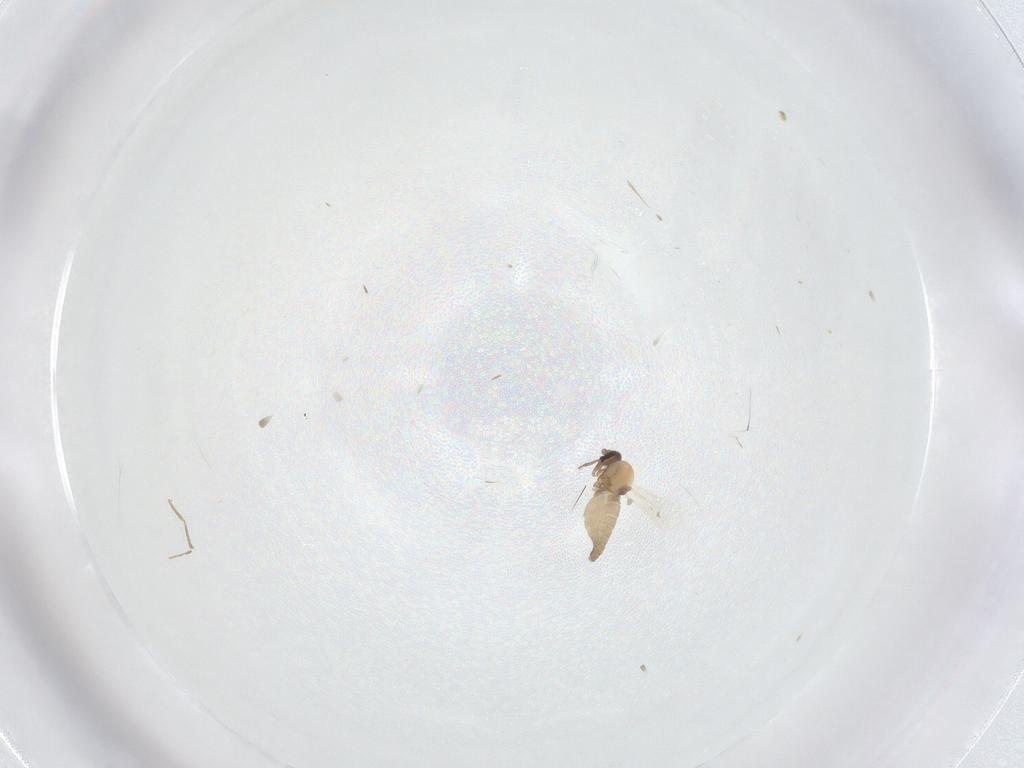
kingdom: Animalia
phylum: Arthropoda
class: Insecta
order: Diptera
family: Ceratopogonidae
